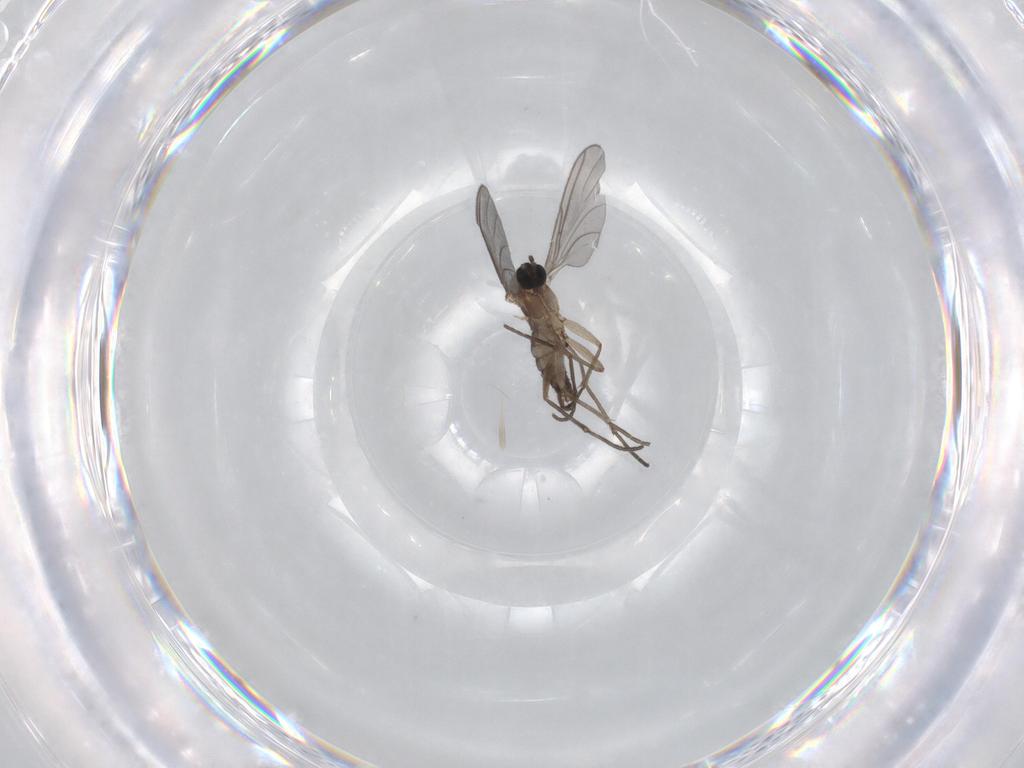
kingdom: Animalia
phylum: Arthropoda
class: Insecta
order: Diptera
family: Sciaridae
